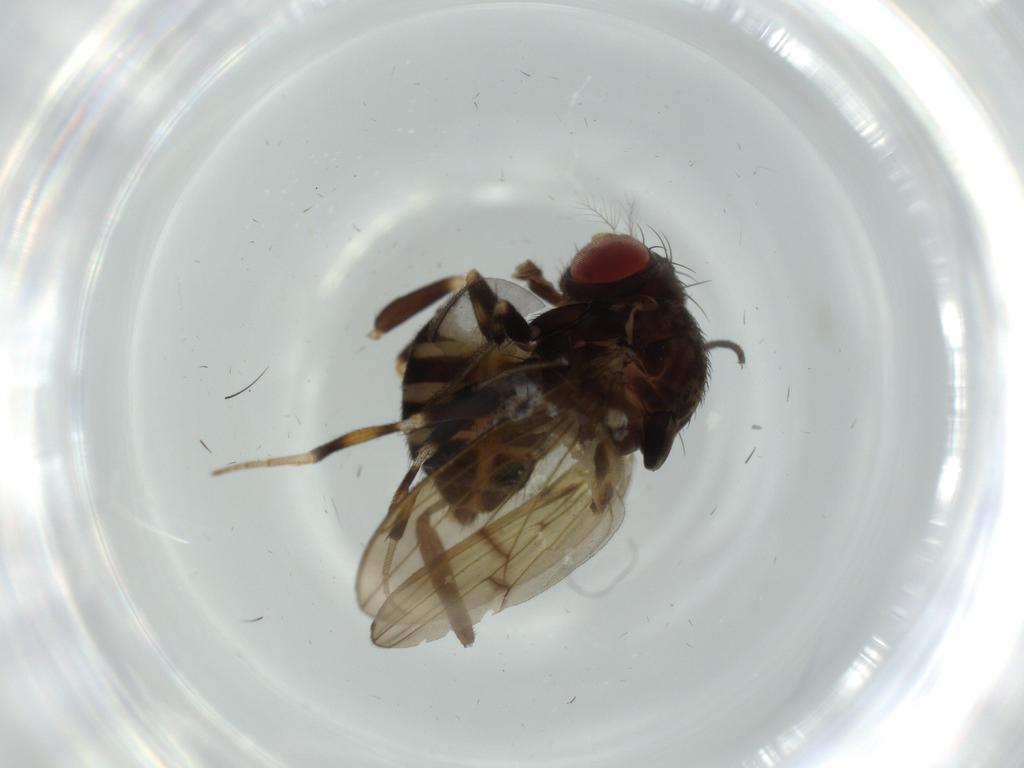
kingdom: Animalia
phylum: Arthropoda
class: Insecta
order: Diptera
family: Drosophilidae
